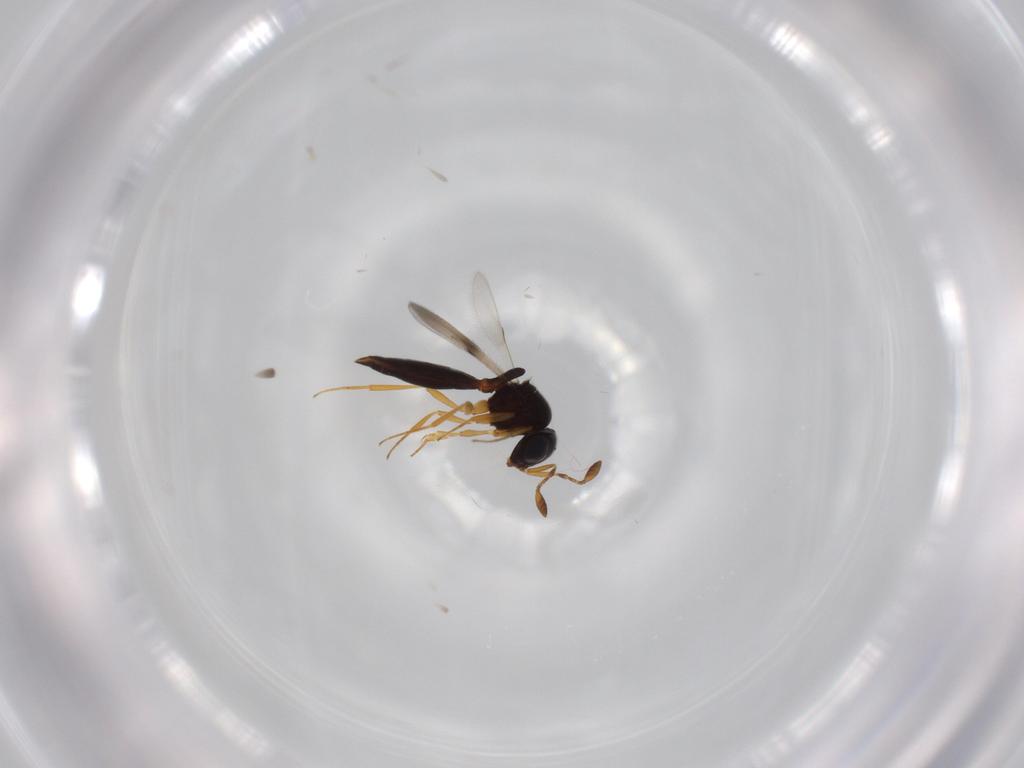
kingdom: Animalia
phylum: Arthropoda
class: Insecta
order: Hymenoptera
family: Scelionidae
